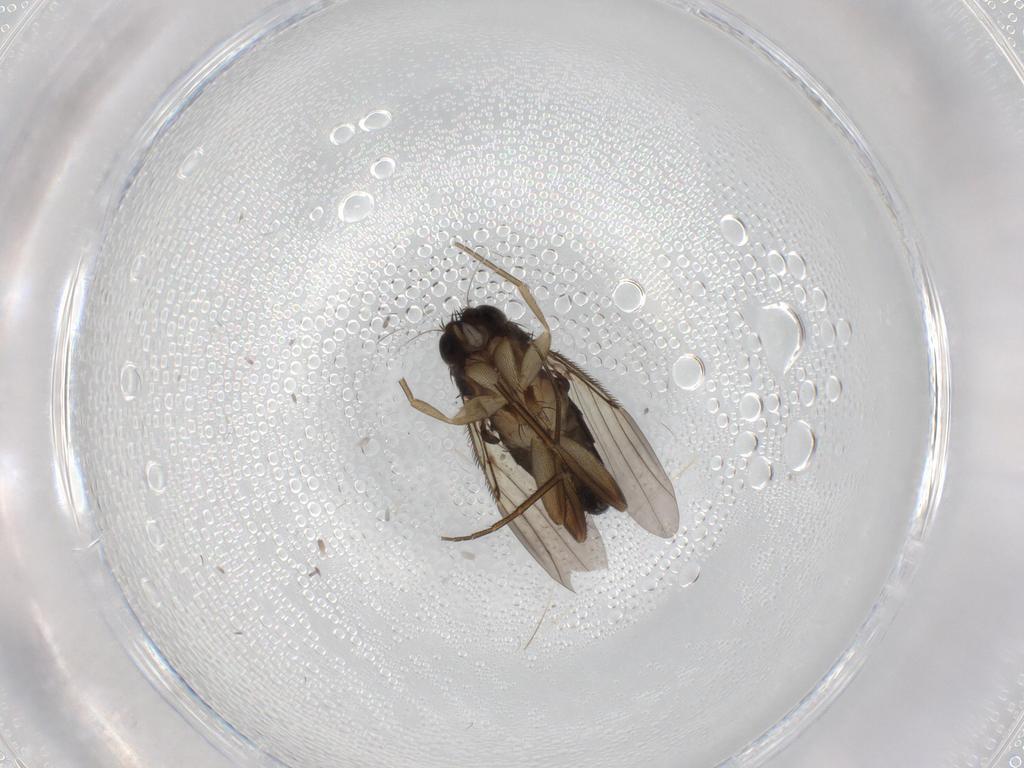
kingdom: Animalia
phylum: Arthropoda
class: Insecta
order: Diptera
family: Phoridae
